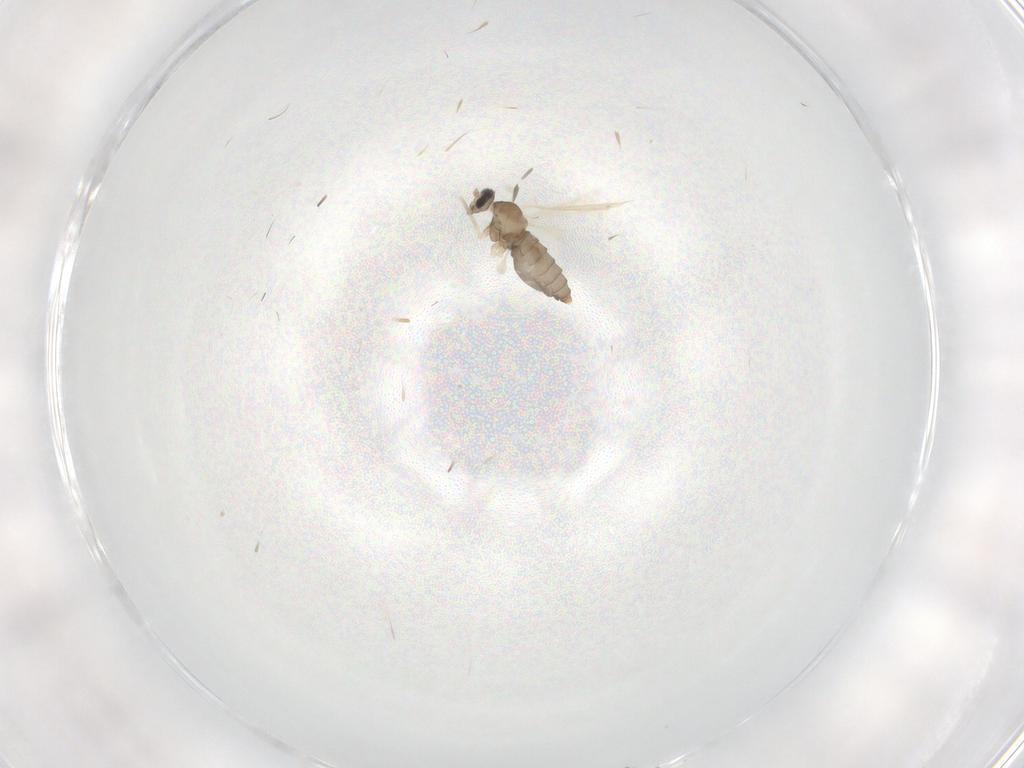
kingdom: Animalia
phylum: Arthropoda
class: Insecta
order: Diptera
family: Cecidomyiidae
